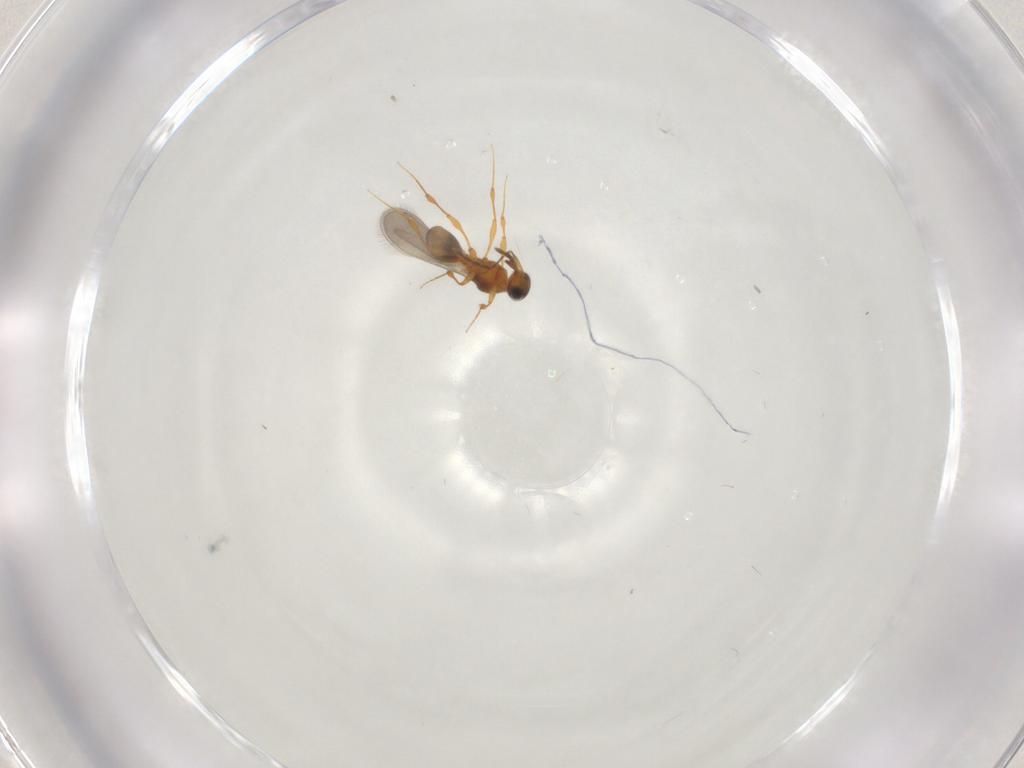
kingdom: Animalia
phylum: Arthropoda
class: Insecta
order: Hymenoptera
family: Platygastridae
